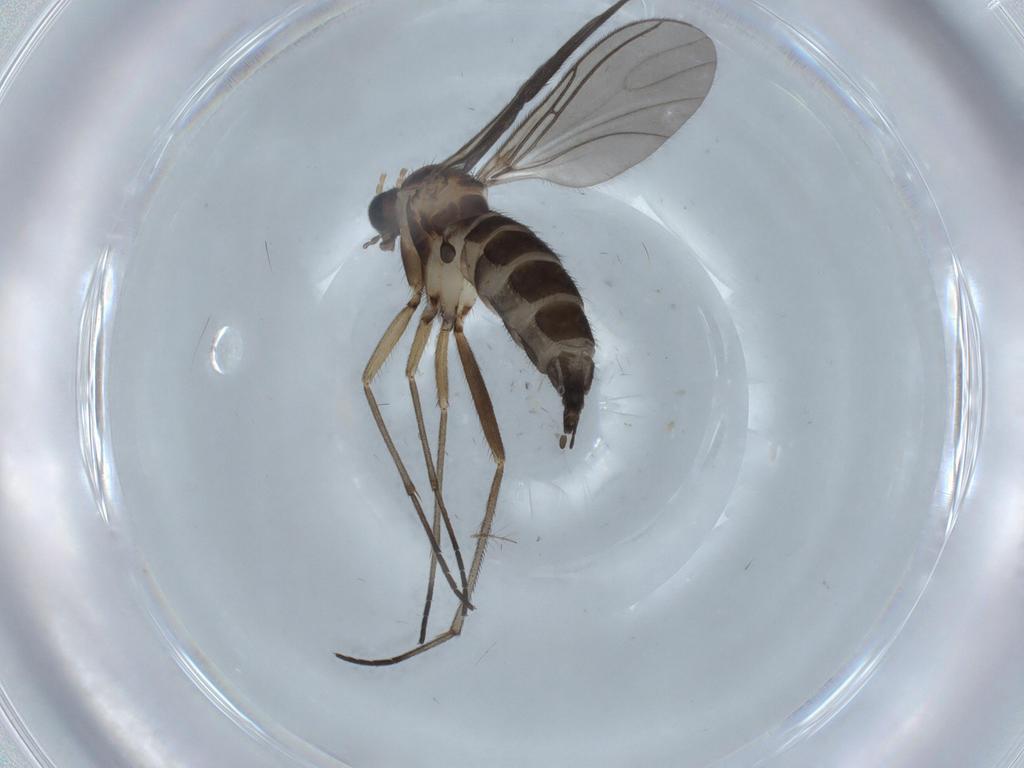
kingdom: Animalia
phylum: Arthropoda
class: Insecta
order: Diptera
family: Sciaridae
